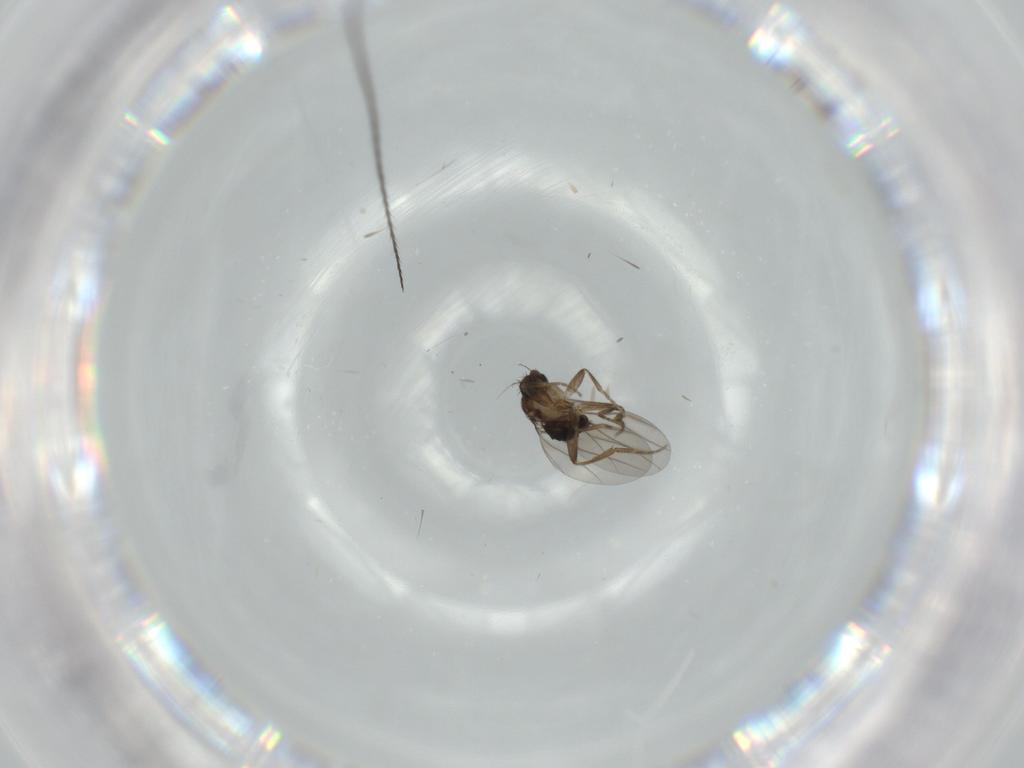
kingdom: Animalia
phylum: Arthropoda
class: Insecta
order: Diptera
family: Phoridae
